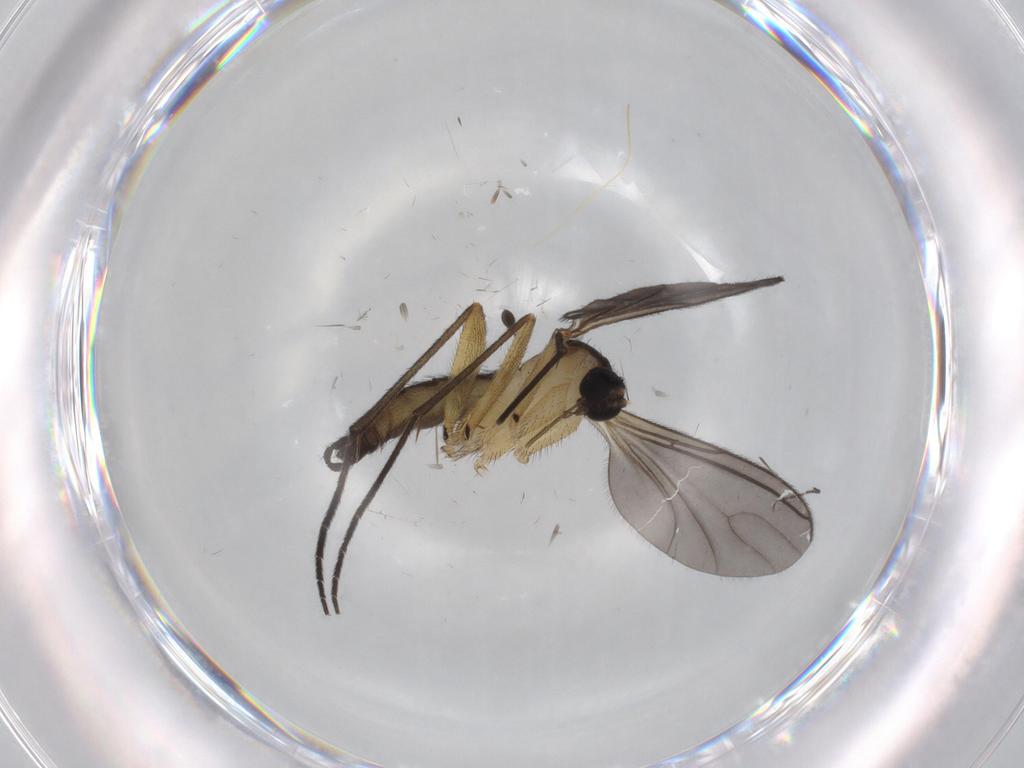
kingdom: Animalia
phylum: Arthropoda
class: Insecta
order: Diptera
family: Sciaridae
